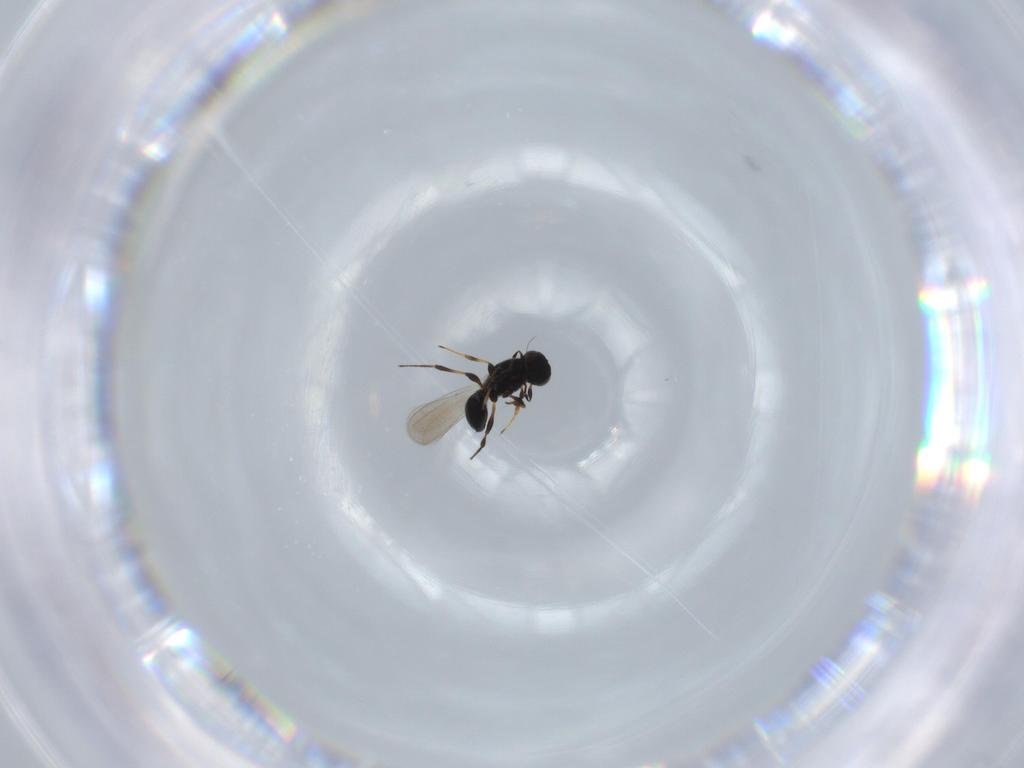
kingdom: Animalia
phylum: Arthropoda
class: Insecta
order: Hymenoptera
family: Platygastridae
